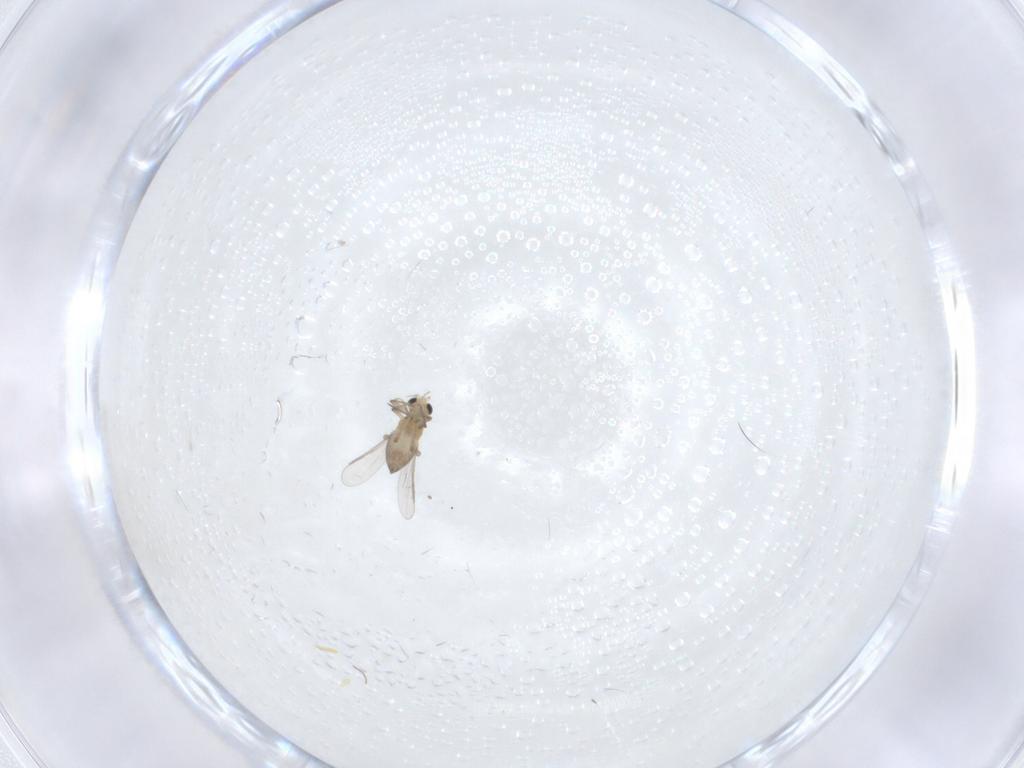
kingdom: Animalia
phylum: Arthropoda
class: Insecta
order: Diptera
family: Chironomidae
